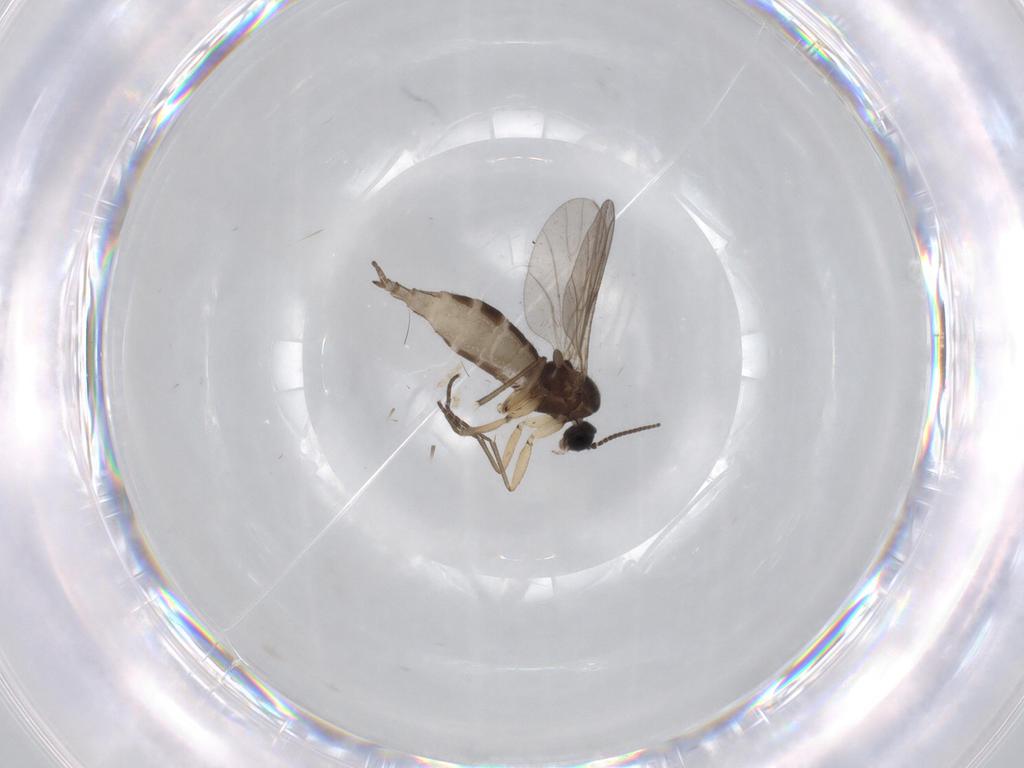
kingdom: Animalia
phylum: Arthropoda
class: Insecta
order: Diptera
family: Sciaridae
